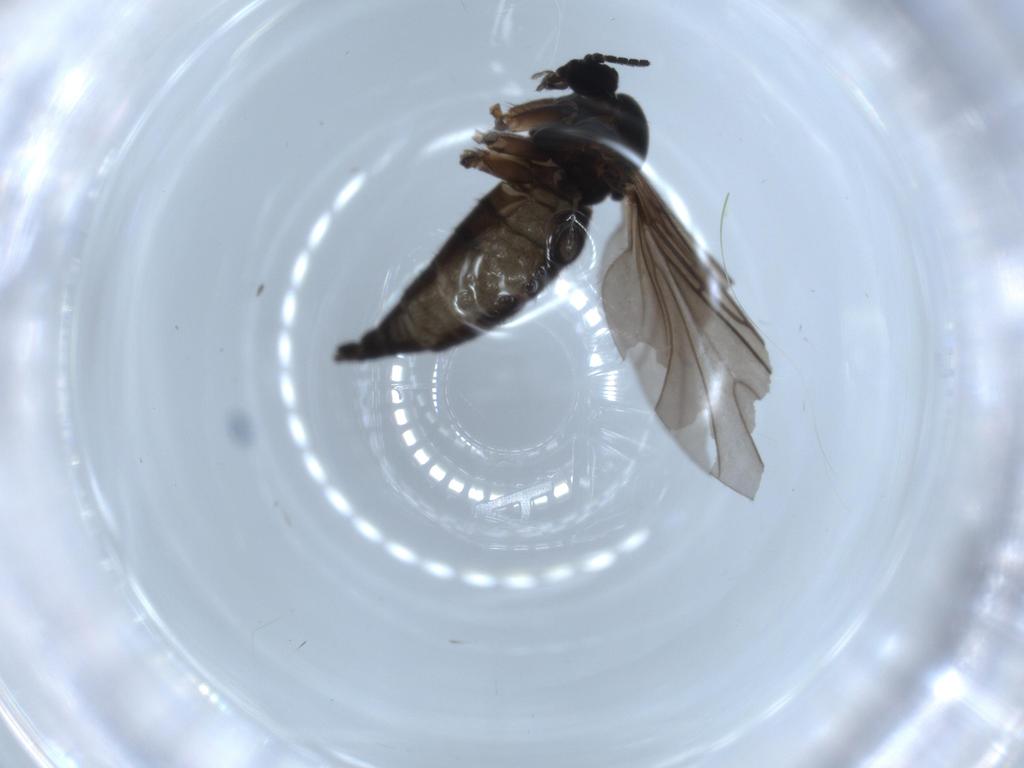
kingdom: Animalia
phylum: Arthropoda
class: Insecta
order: Diptera
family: Sciaridae
